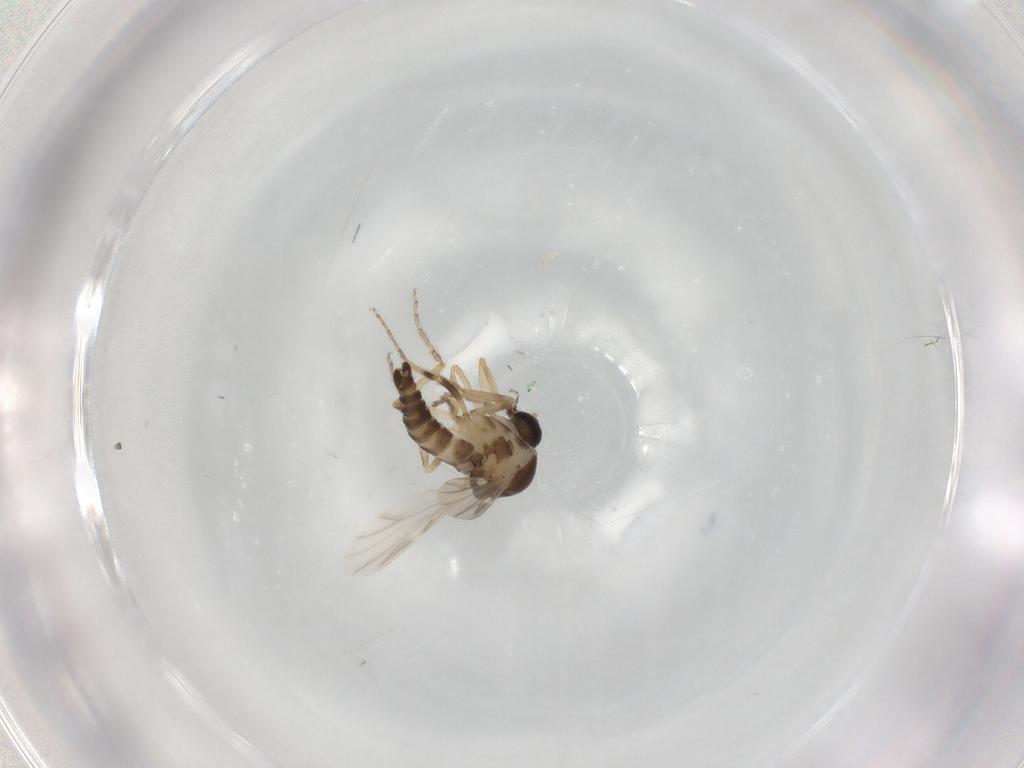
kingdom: Animalia
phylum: Arthropoda
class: Insecta
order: Diptera
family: Ceratopogonidae
